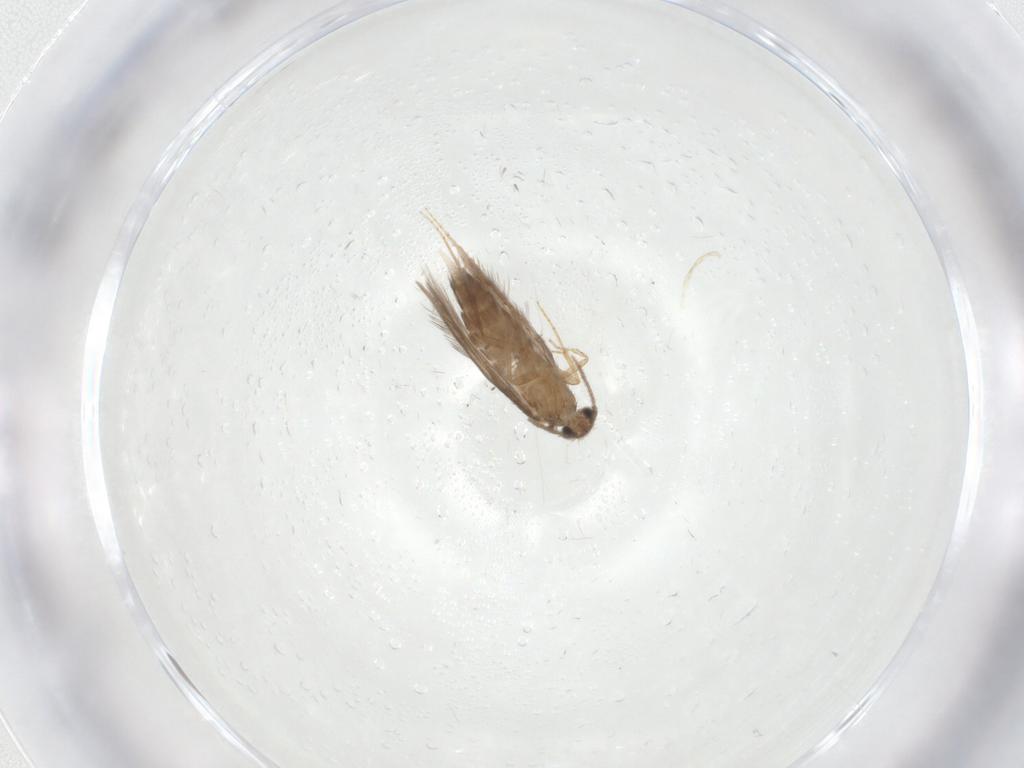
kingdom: Animalia
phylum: Arthropoda
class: Insecta
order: Trichoptera
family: Hydroptilidae
